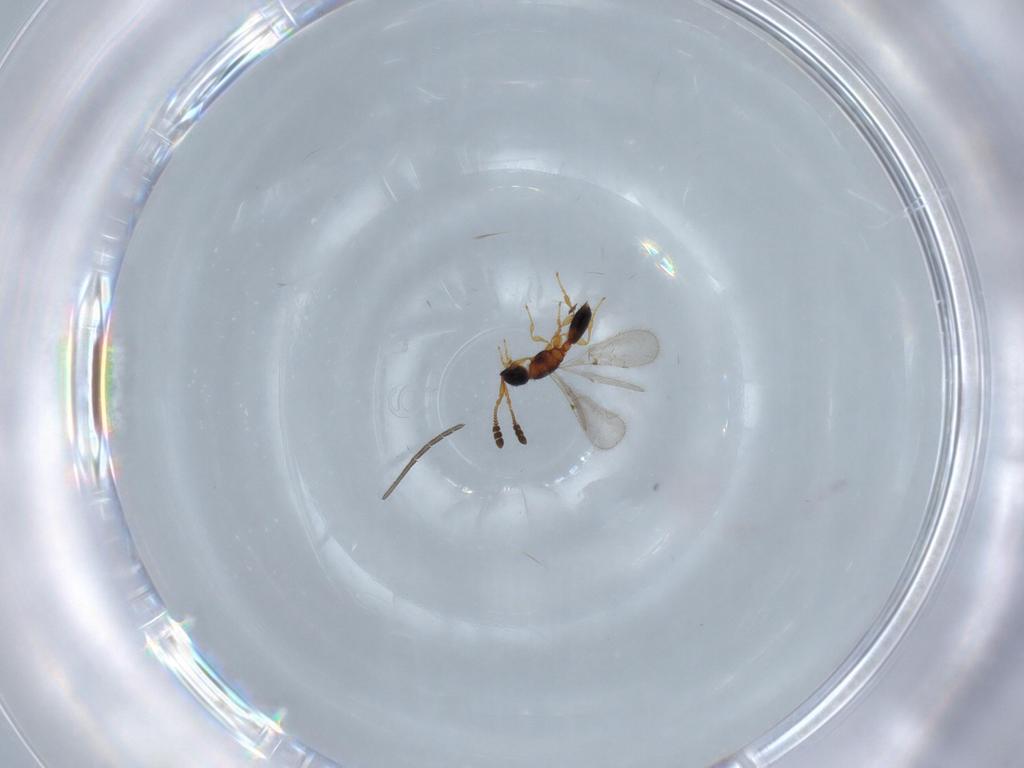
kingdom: Animalia
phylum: Arthropoda
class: Insecta
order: Hymenoptera
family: Diapriidae
